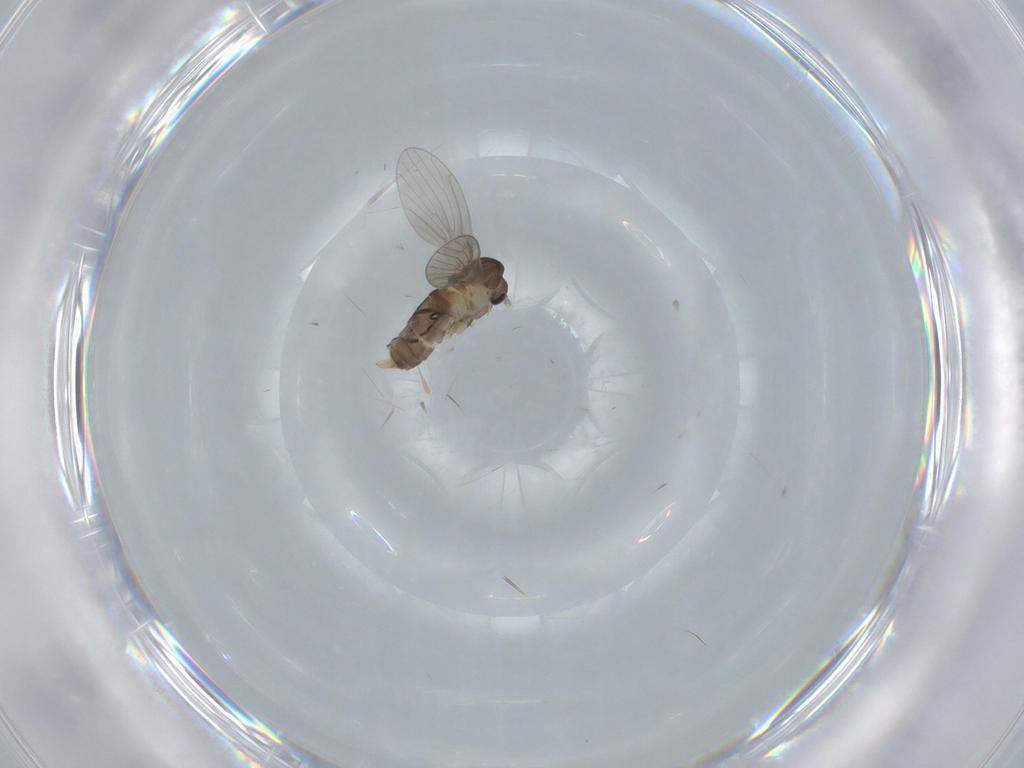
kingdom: Animalia
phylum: Arthropoda
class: Insecta
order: Diptera
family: Psychodidae
